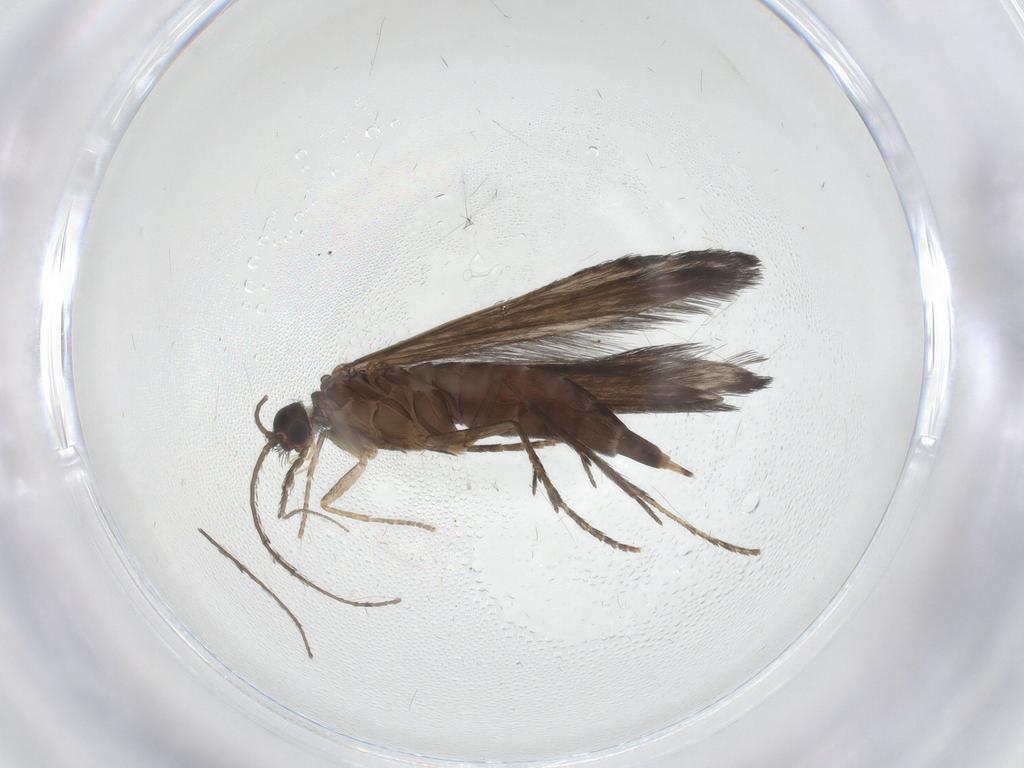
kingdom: Animalia
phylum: Arthropoda
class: Insecta
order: Trichoptera
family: Xiphocentronidae
